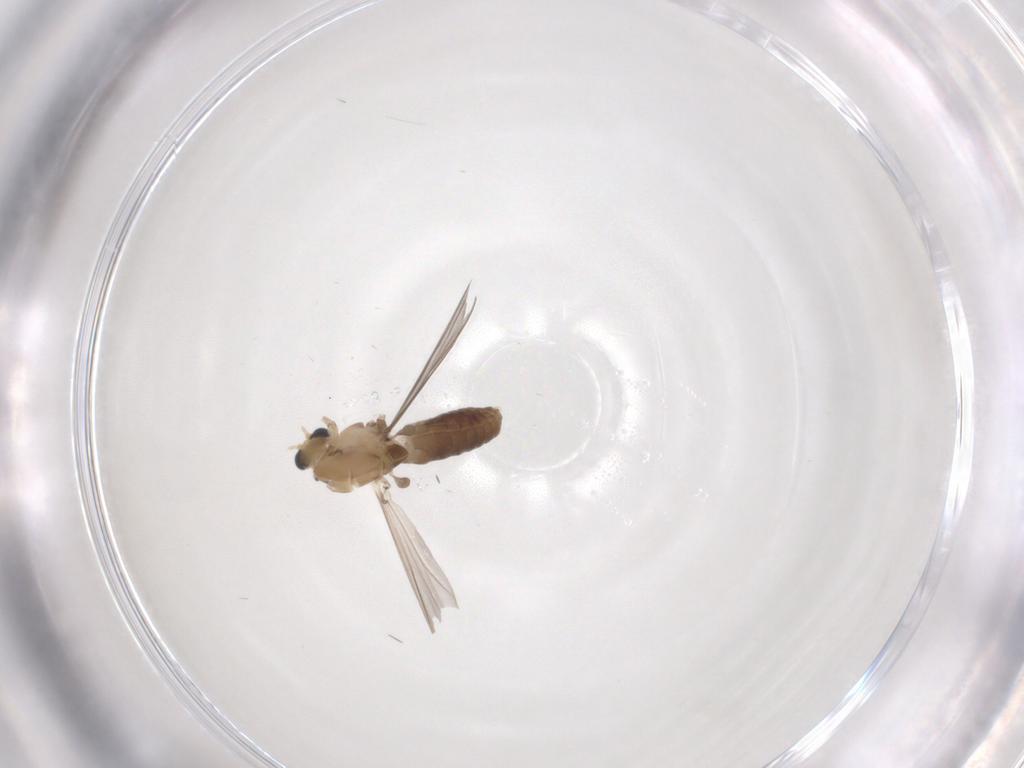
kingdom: Animalia
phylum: Arthropoda
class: Insecta
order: Diptera
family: Chironomidae
